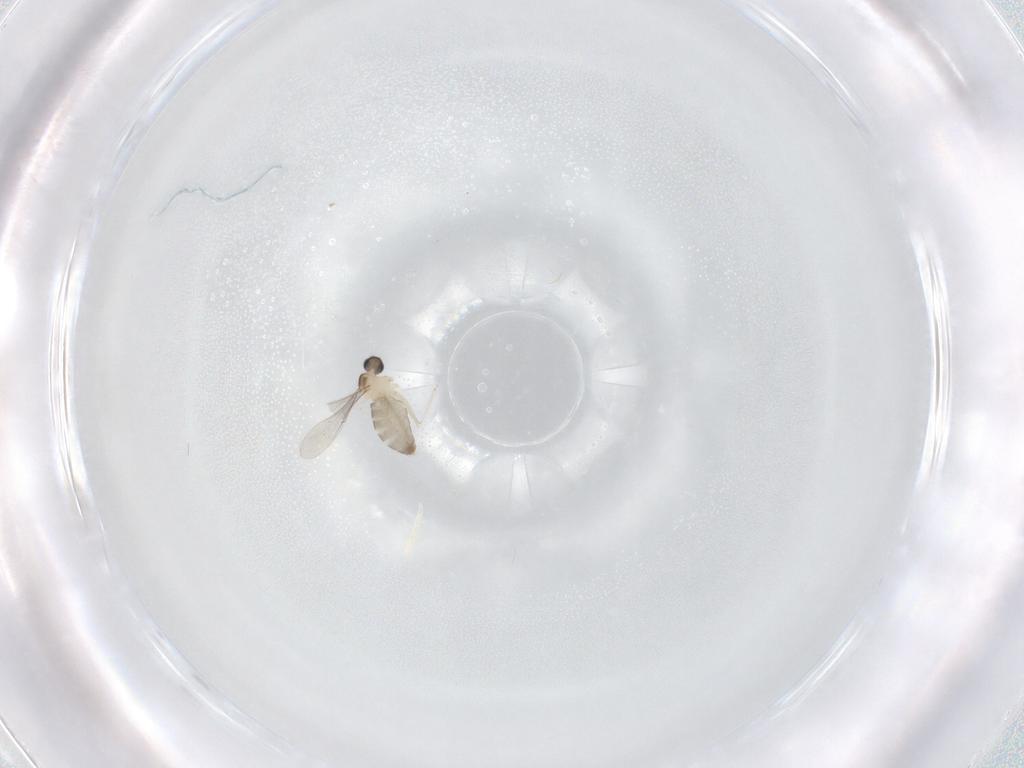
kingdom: Animalia
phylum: Arthropoda
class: Insecta
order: Diptera
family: Cecidomyiidae
